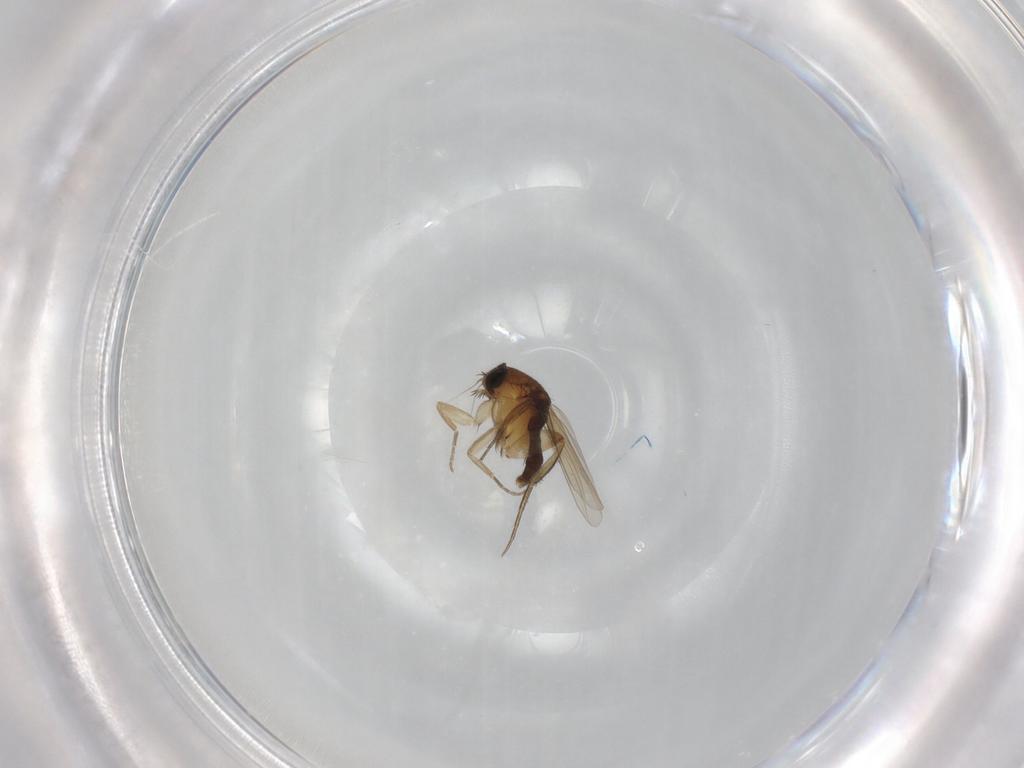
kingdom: Animalia
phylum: Arthropoda
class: Insecta
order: Diptera
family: Phoridae
